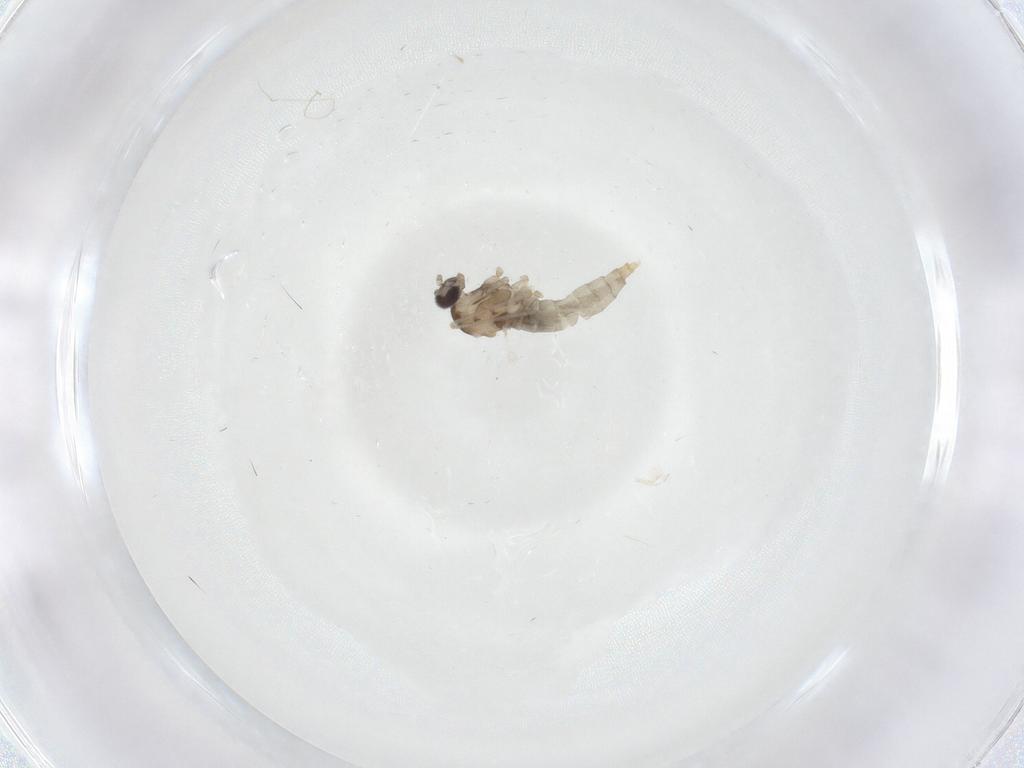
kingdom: Animalia
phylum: Arthropoda
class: Insecta
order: Diptera
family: Cecidomyiidae
